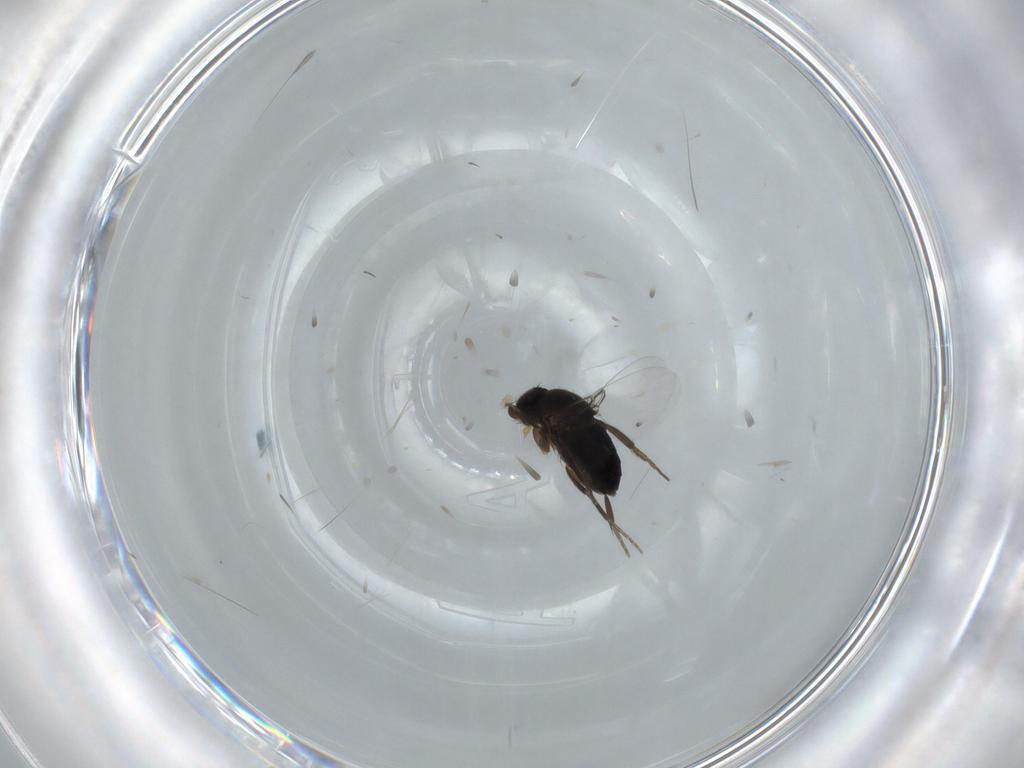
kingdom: Animalia
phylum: Arthropoda
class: Insecta
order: Diptera
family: Phoridae
